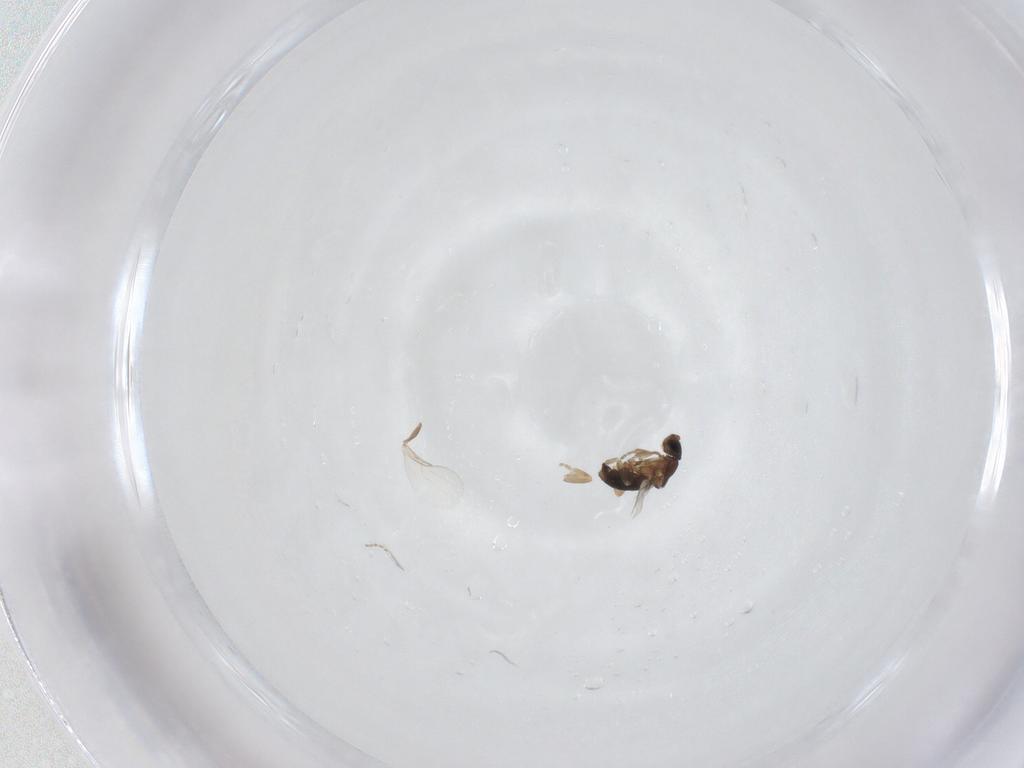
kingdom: Animalia
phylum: Arthropoda
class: Insecta
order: Diptera
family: Phoridae
